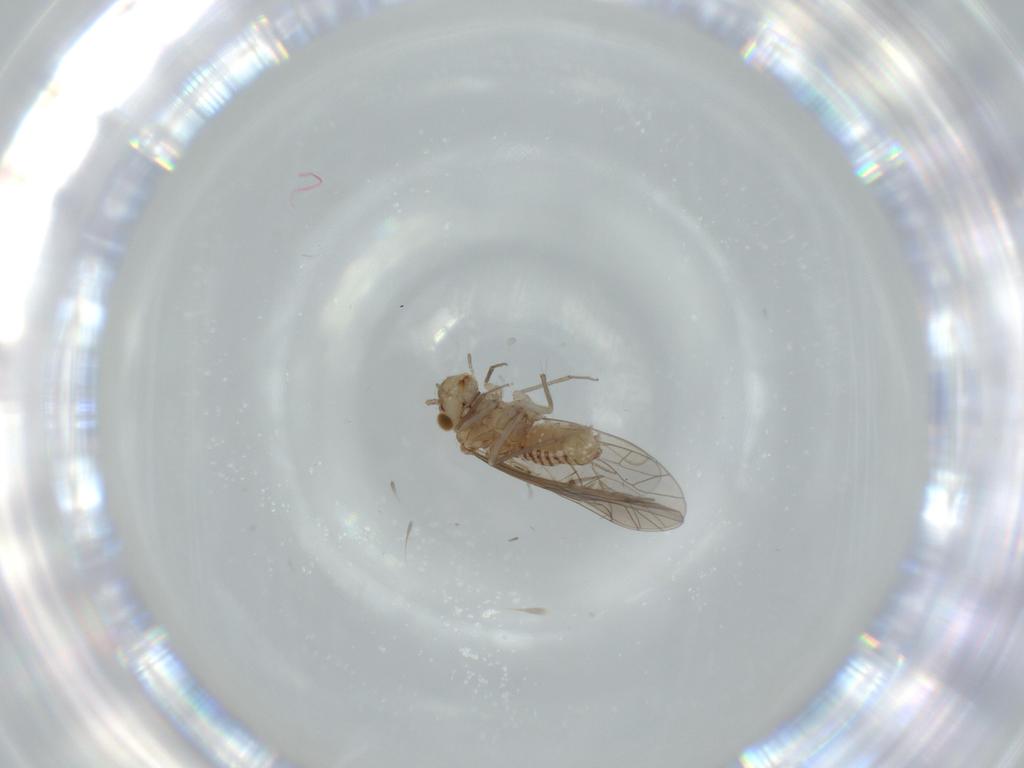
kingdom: Animalia
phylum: Arthropoda
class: Insecta
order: Psocodea
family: Lachesillidae
